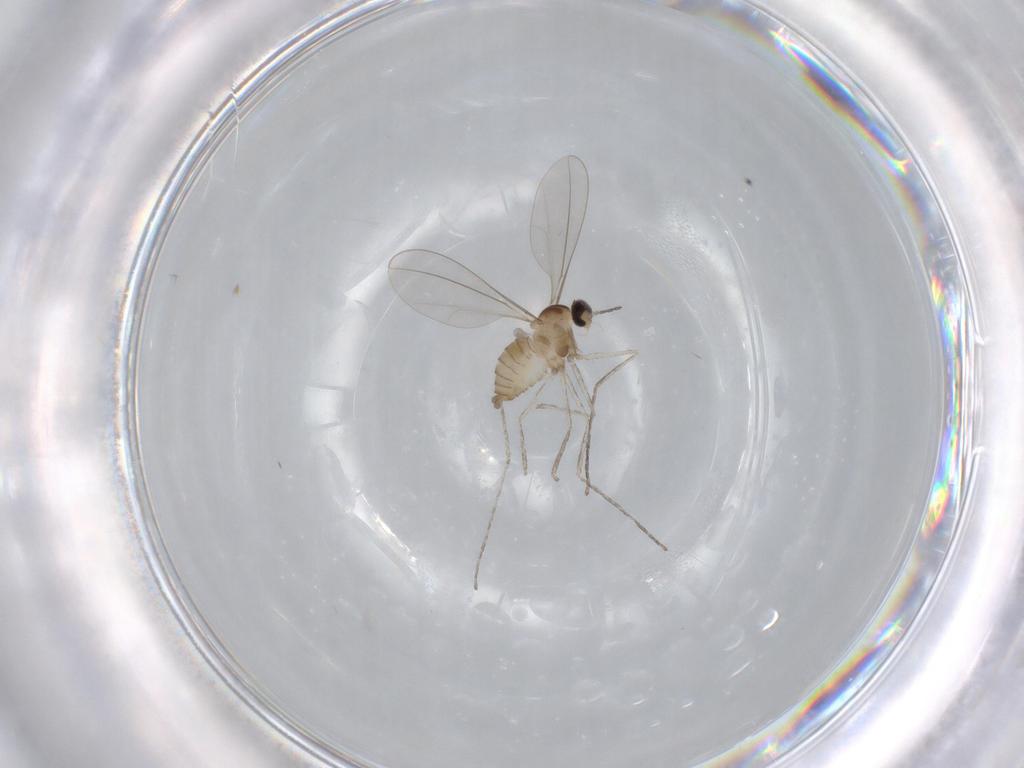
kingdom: Animalia
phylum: Arthropoda
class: Insecta
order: Diptera
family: Cecidomyiidae
